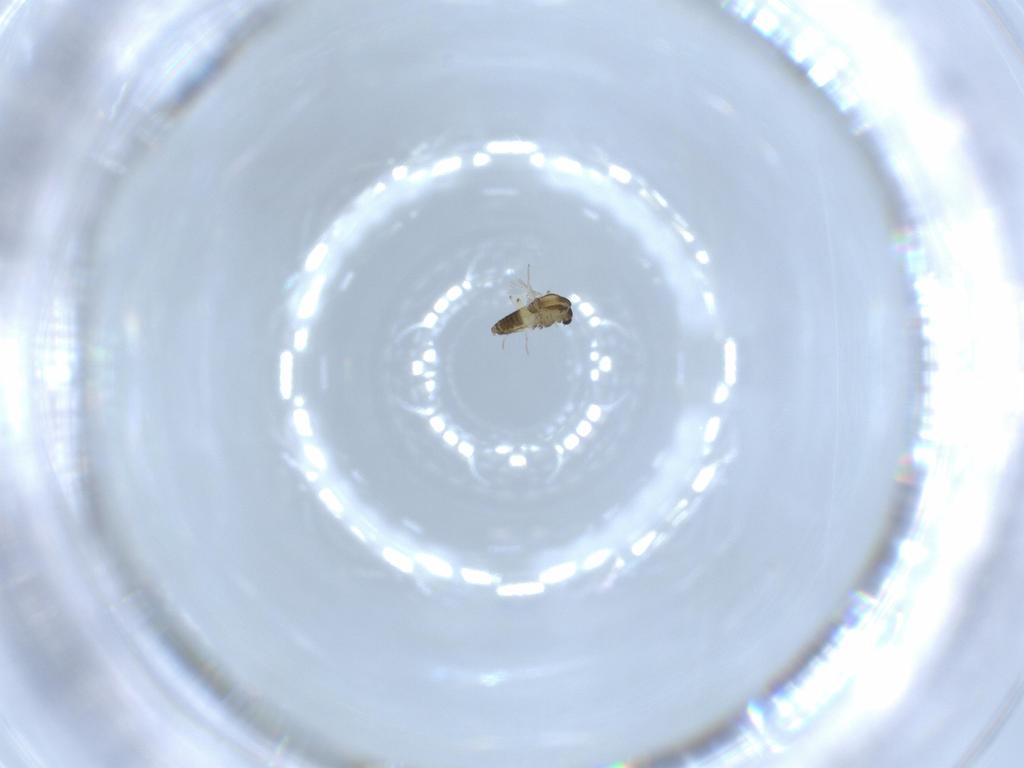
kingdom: Animalia
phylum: Arthropoda
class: Insecta
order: Diptera
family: Chironomidae
